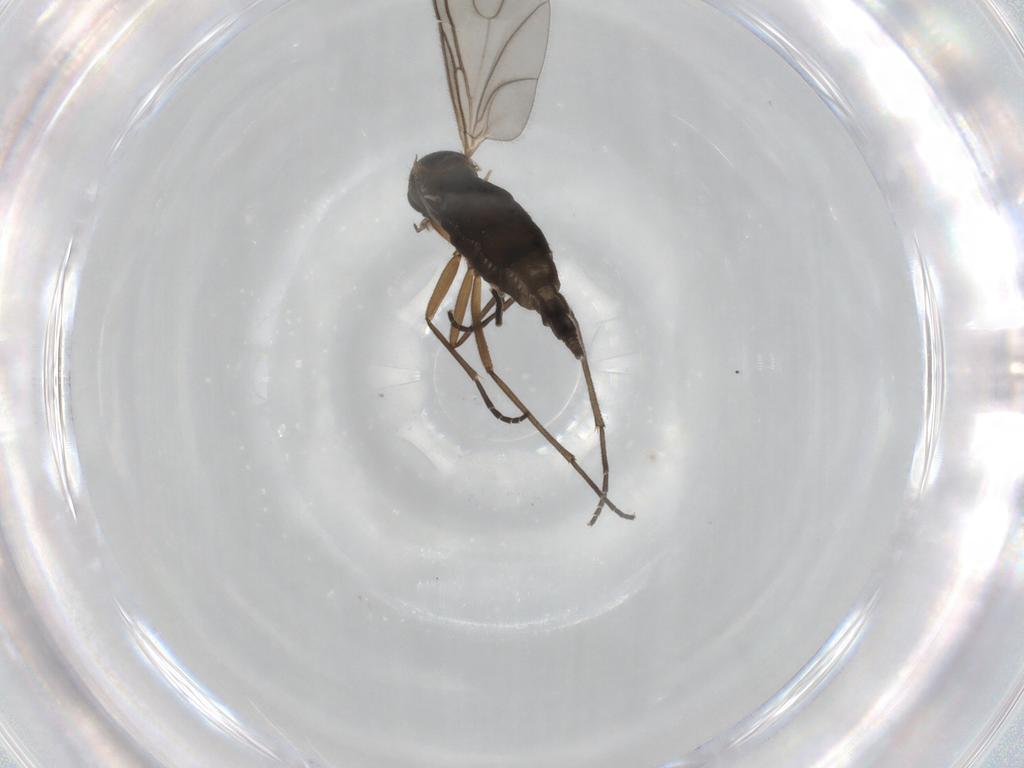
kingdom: Animalia
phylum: Arthropoda
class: Insecta
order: Diptera
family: Sciaridae
